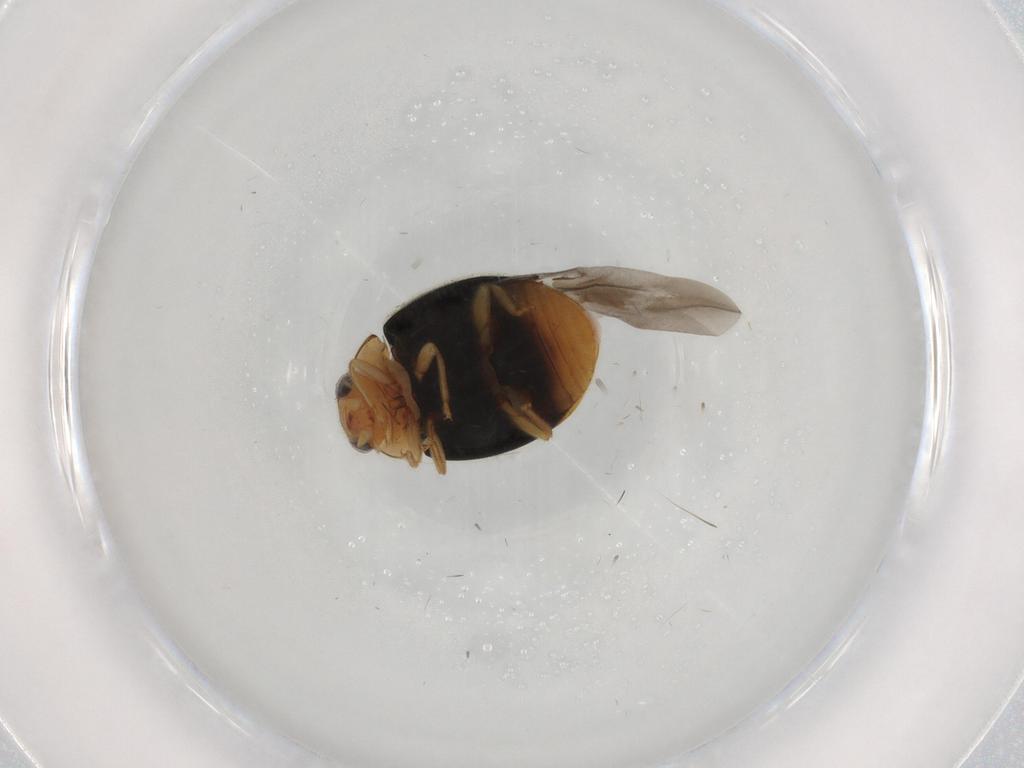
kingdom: Animalia
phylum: Arthropoda
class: Insecta
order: Coleoptera
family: Coccinellidae
